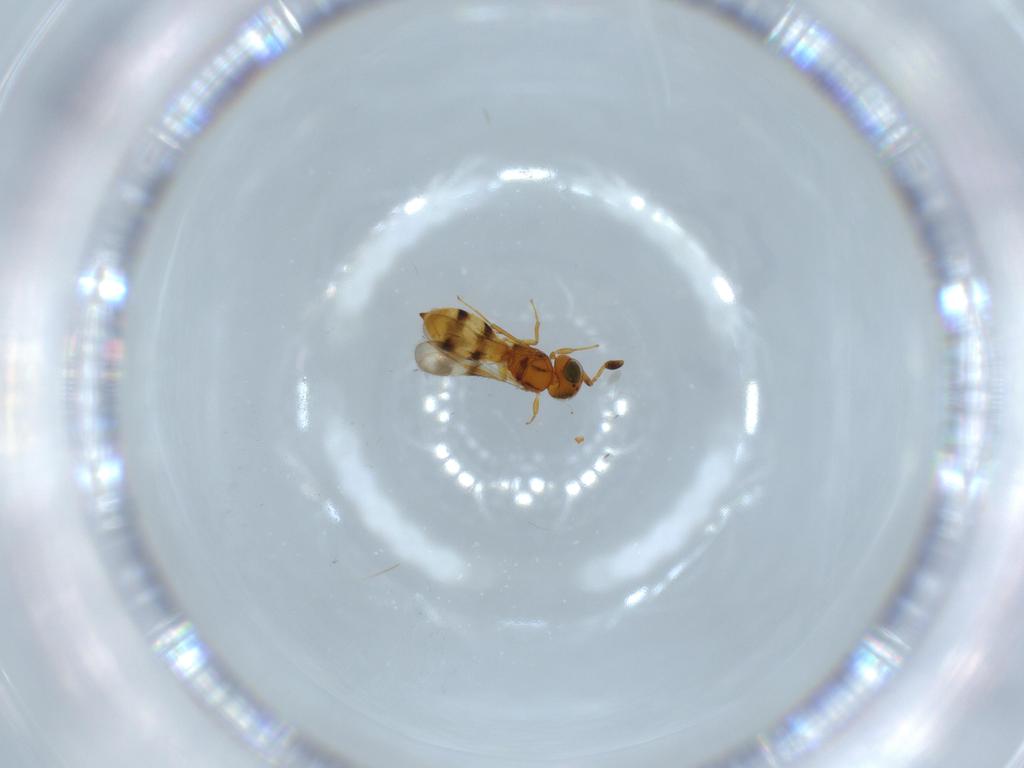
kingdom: Animalia
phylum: Arthropoda
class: Insecta
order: Hymenoptera
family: Scelionidae
